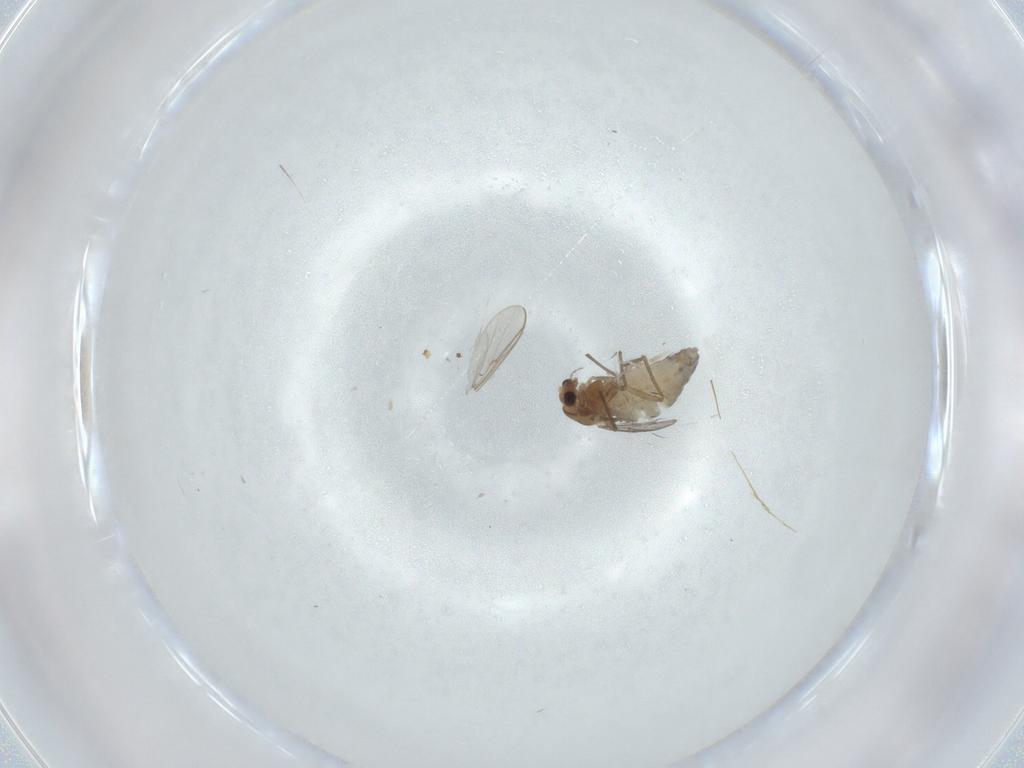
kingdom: Animalia
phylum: Arthropoda
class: Insecta
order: Diptera
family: Chironomidae
